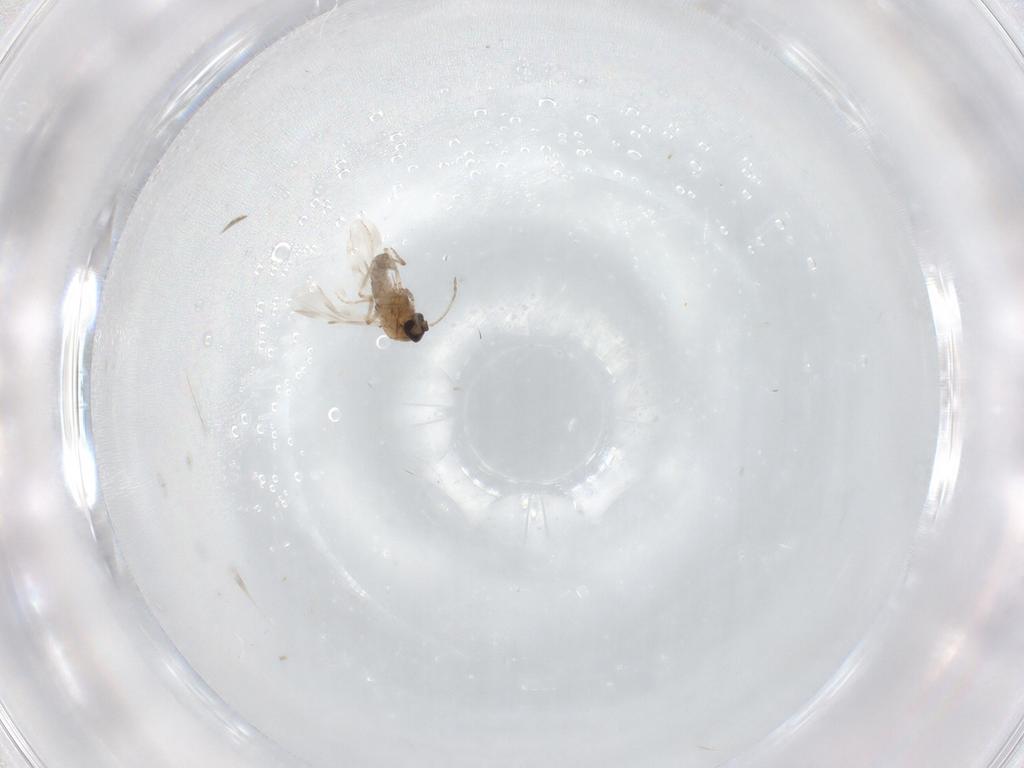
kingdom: Animalia
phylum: Arthropoda
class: Insecta
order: Diptera
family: Ceratopogonidae
